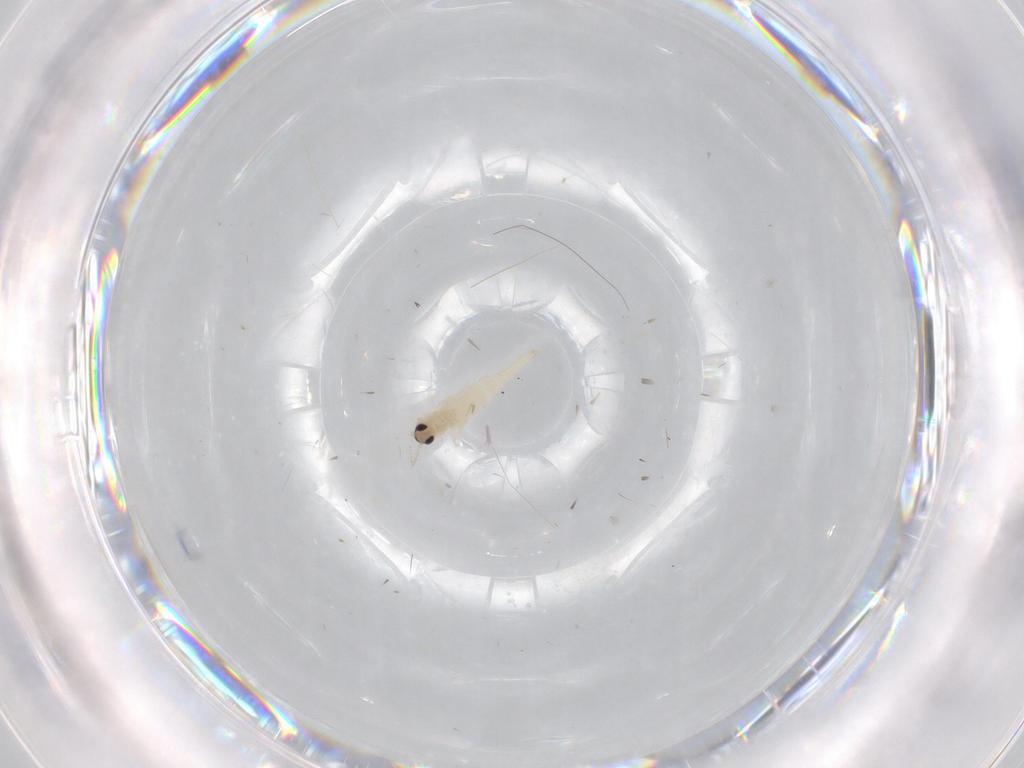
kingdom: Animalia
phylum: Arthropoda
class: Insecta
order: Diptera
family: Cecidomyiidae
